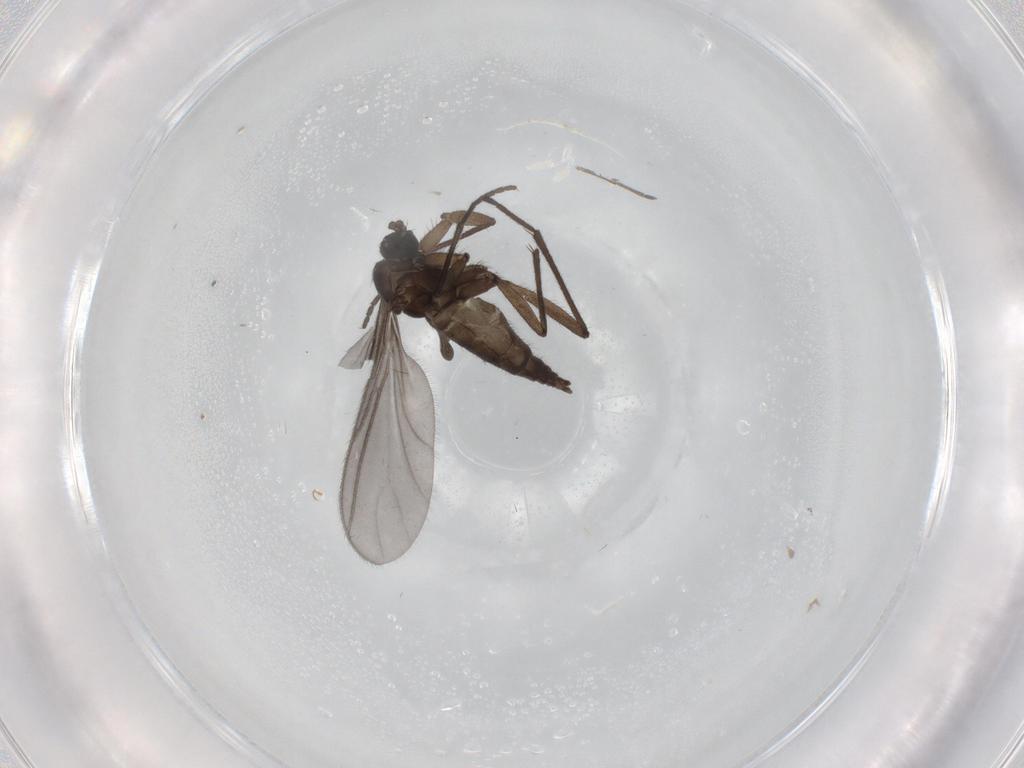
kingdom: Animalia
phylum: Arthropoda
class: Insecta
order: Diptera
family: Sciaridae
